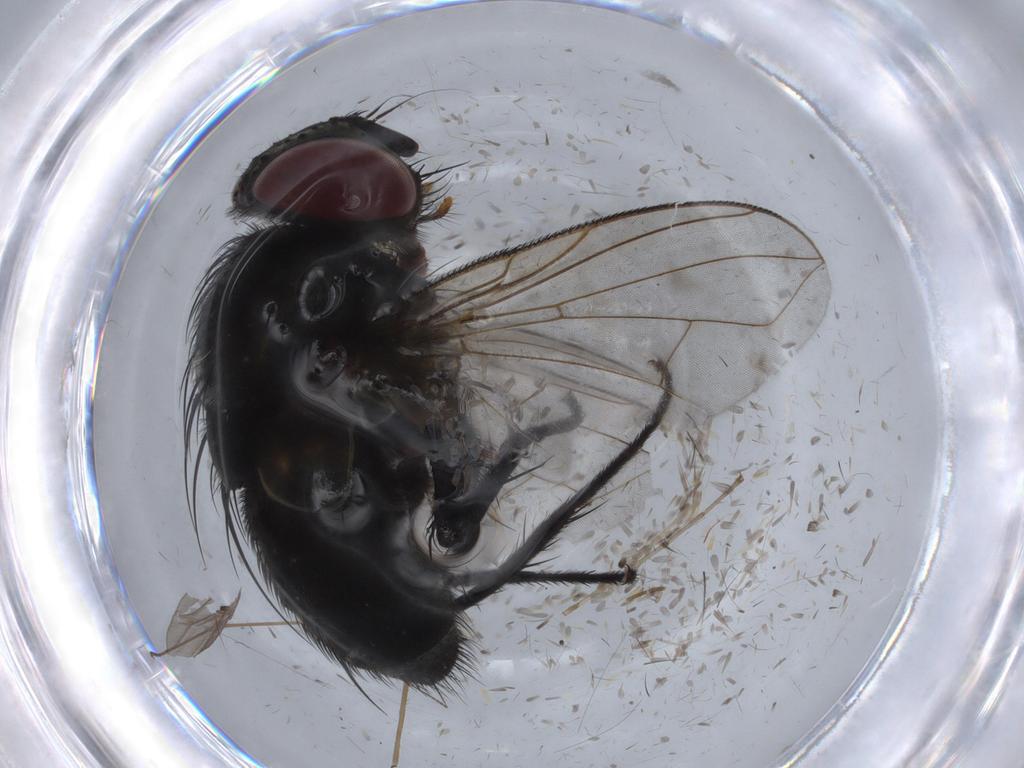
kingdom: Animalia
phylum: Arthropoda
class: Insecta
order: Diptera
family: Tachinidae
